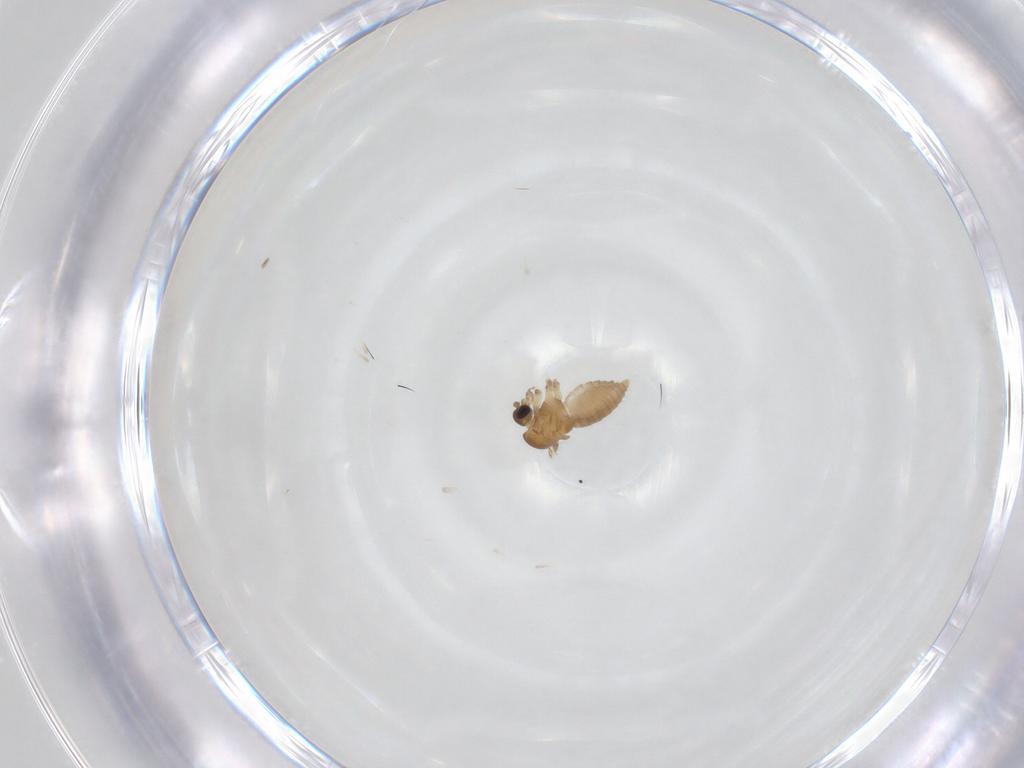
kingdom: Animalia
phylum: Arthropoda
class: Insecta
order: Diptera
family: Psychodidae
